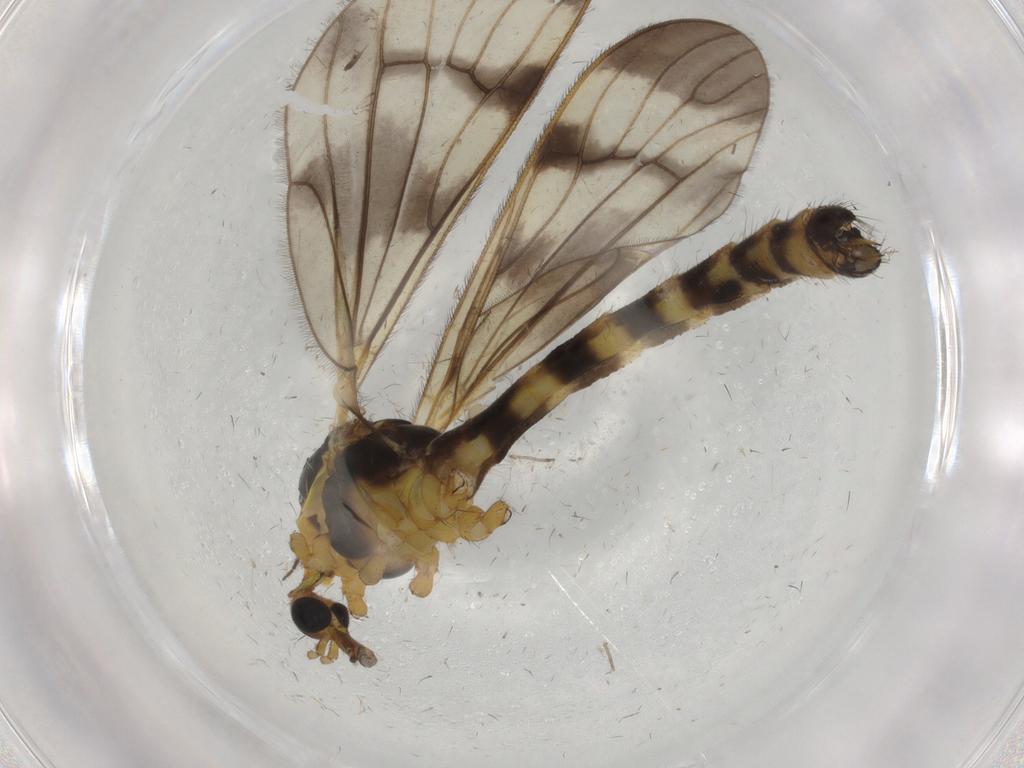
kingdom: Animalia
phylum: Arthropoda
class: Insecta
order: Diptera
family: Limoniidae
